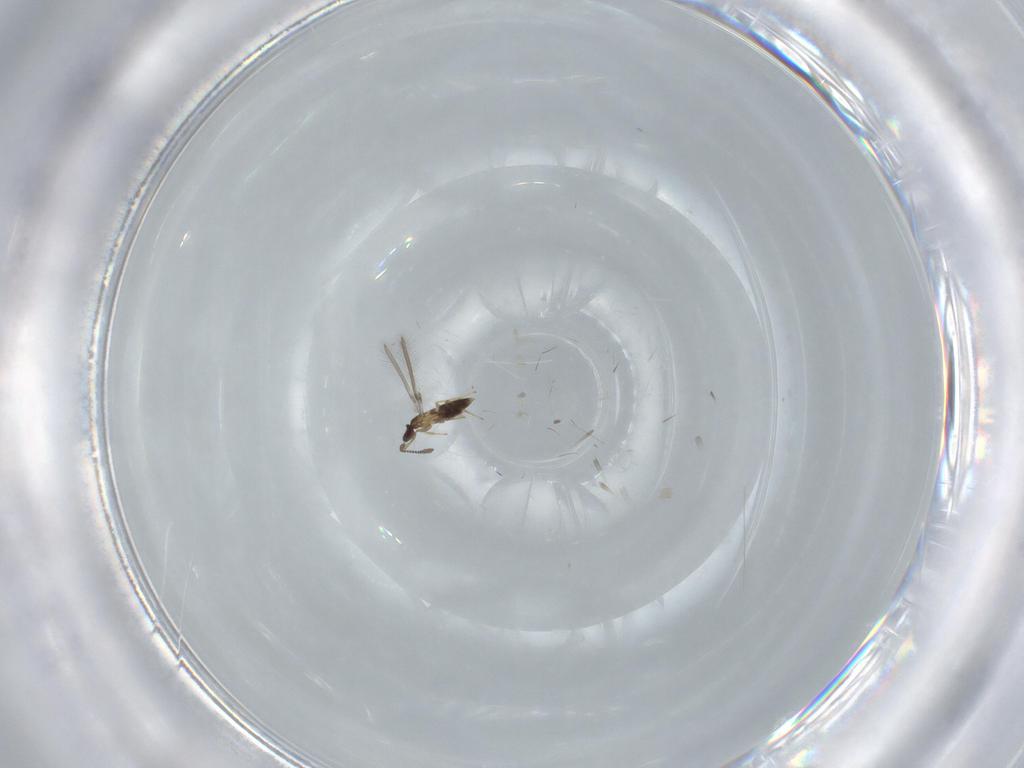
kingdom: Animalia
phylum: Arthropoda
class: Insecta
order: Hymenoptera
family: Mymaridae
